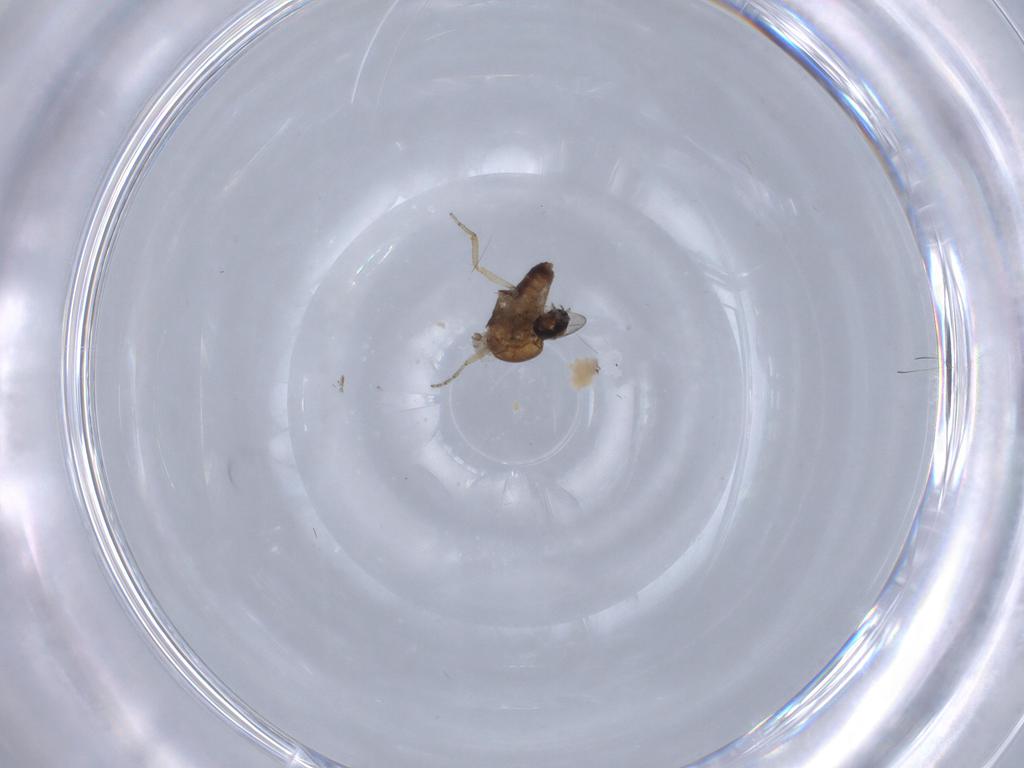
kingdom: Animalia
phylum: Arthropoda
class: Insecta
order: Diptera
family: Ceratopogonidae
